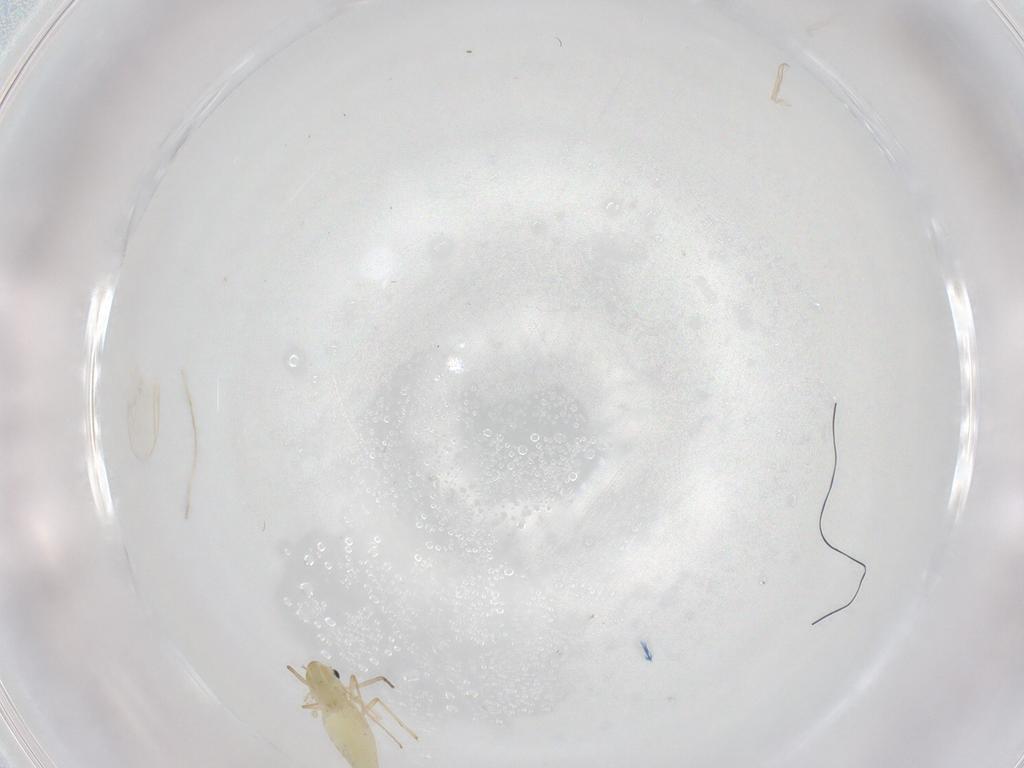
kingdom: Animalia
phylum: Arthropoda
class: Insecta
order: Diptera
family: Chironomidae
